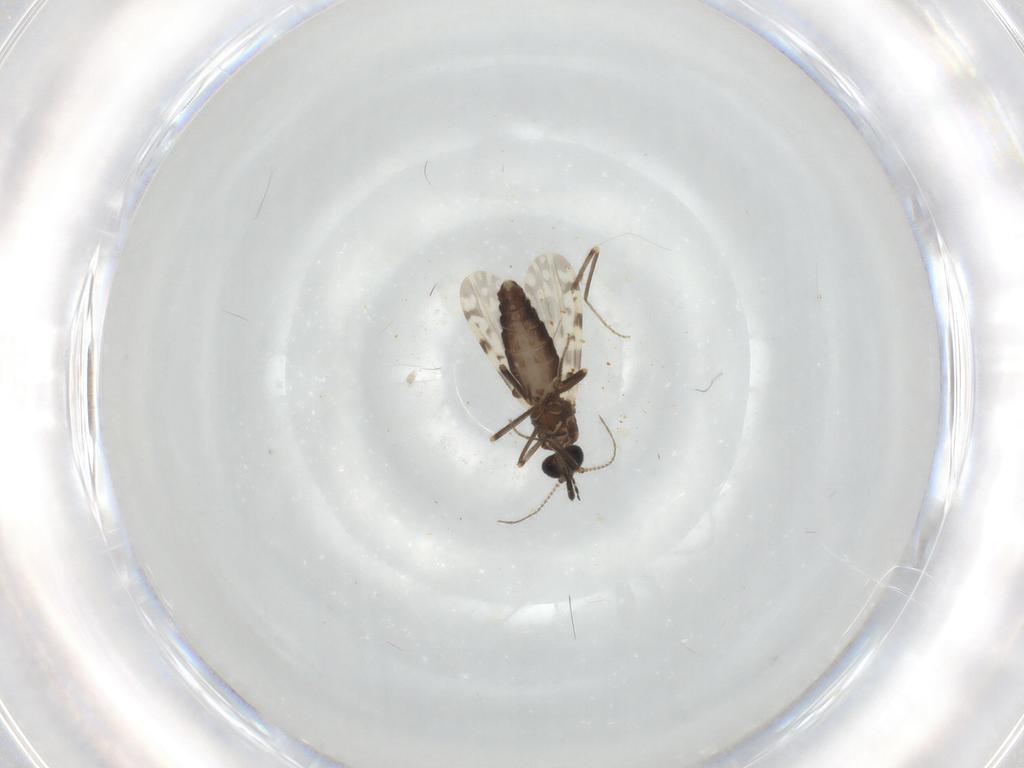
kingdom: Animalia
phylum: Arthropoda
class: Insecta
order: Diptera
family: Ceratopogonidae
